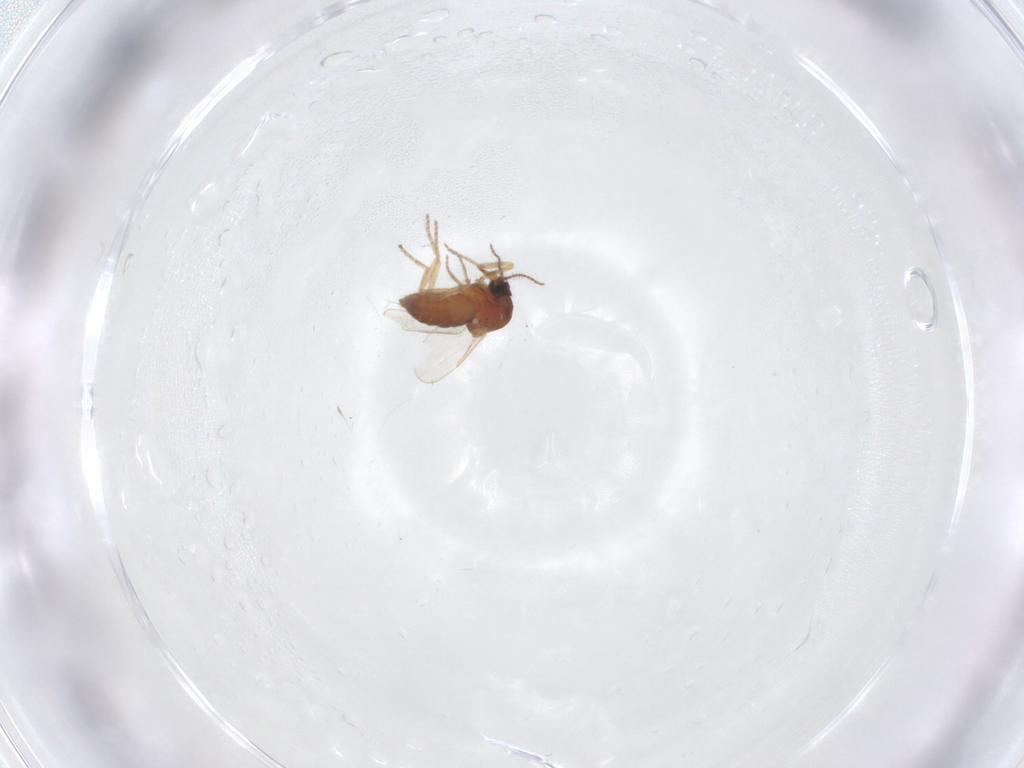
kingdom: Animalia
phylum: Arthropoda
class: Insecta
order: Diptera
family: Ceratopogonidae
